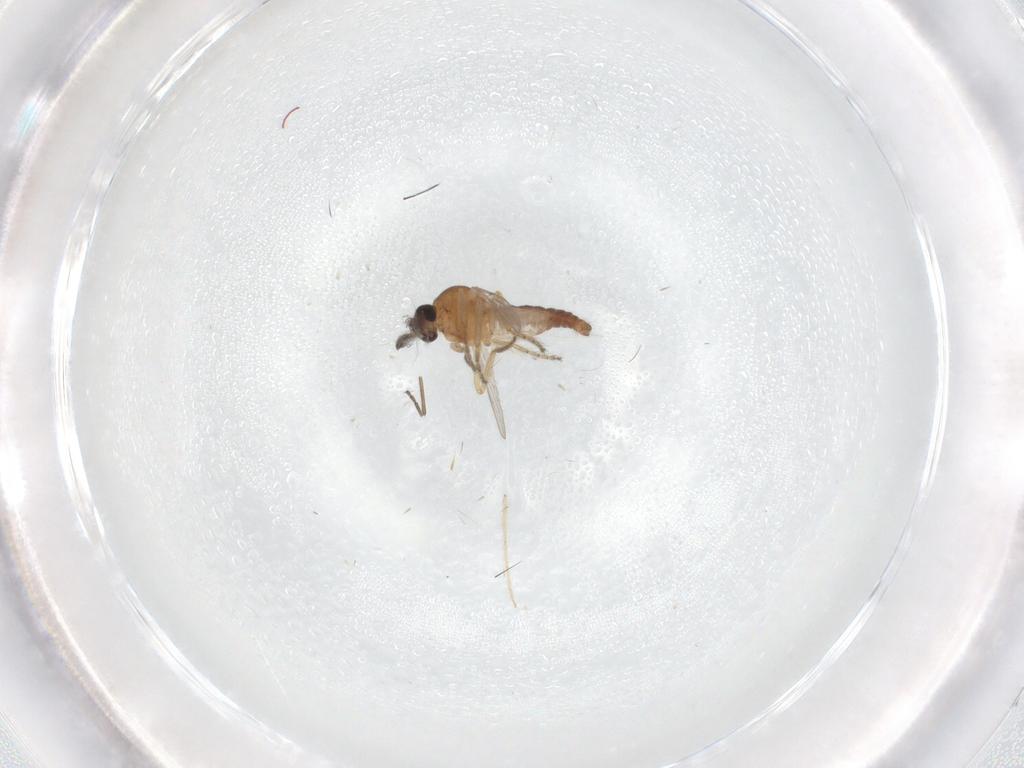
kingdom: Animalia
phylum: Arthropoda
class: Insecta
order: Diptera
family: Ceratopogonidae
